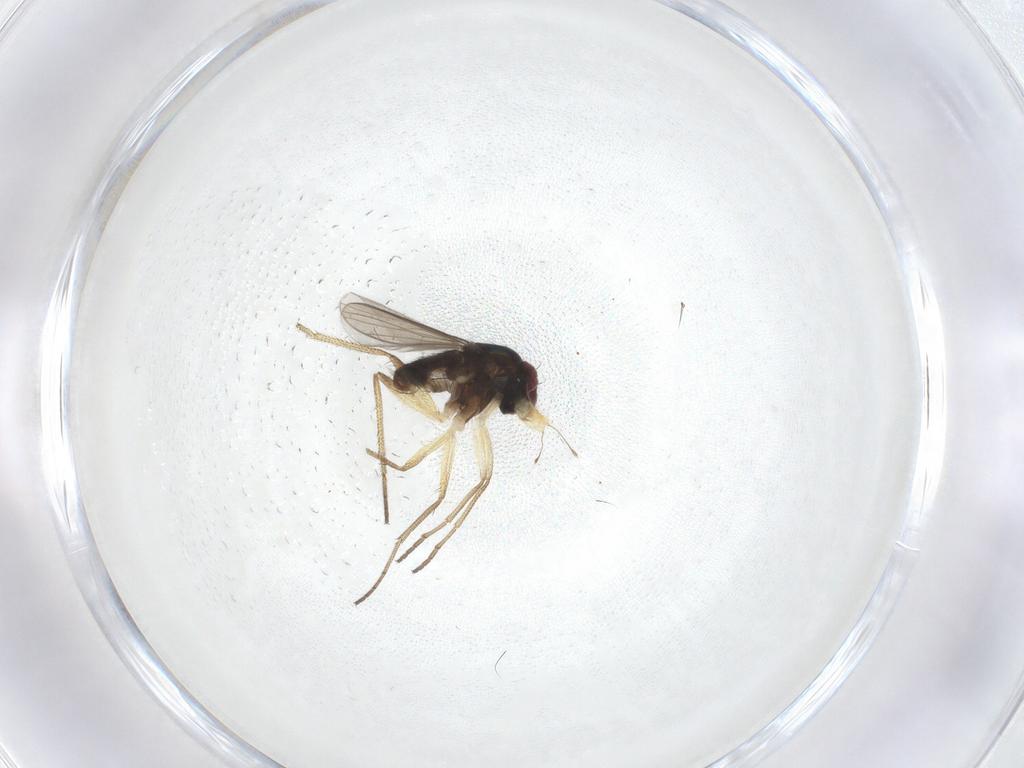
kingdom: Animalia
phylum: Arthropoda
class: Insecta
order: Diptera
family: Dolichopodidae
